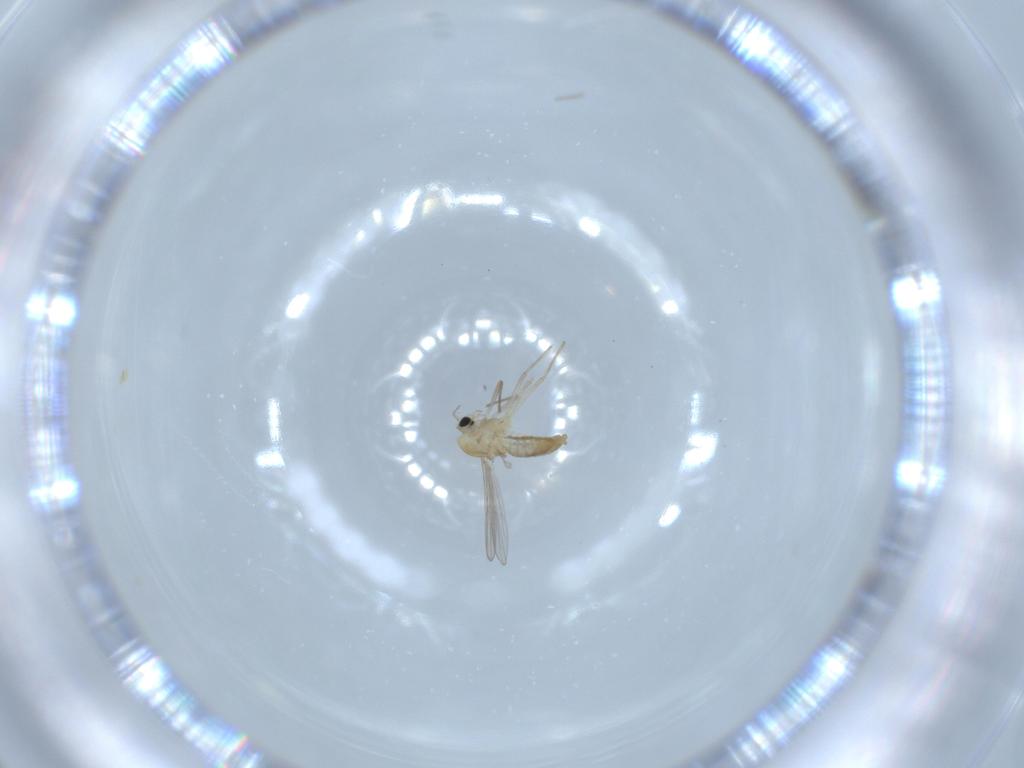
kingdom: Animalia
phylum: Arthropoda
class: Insecta
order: Diptera
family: Chironomidae
